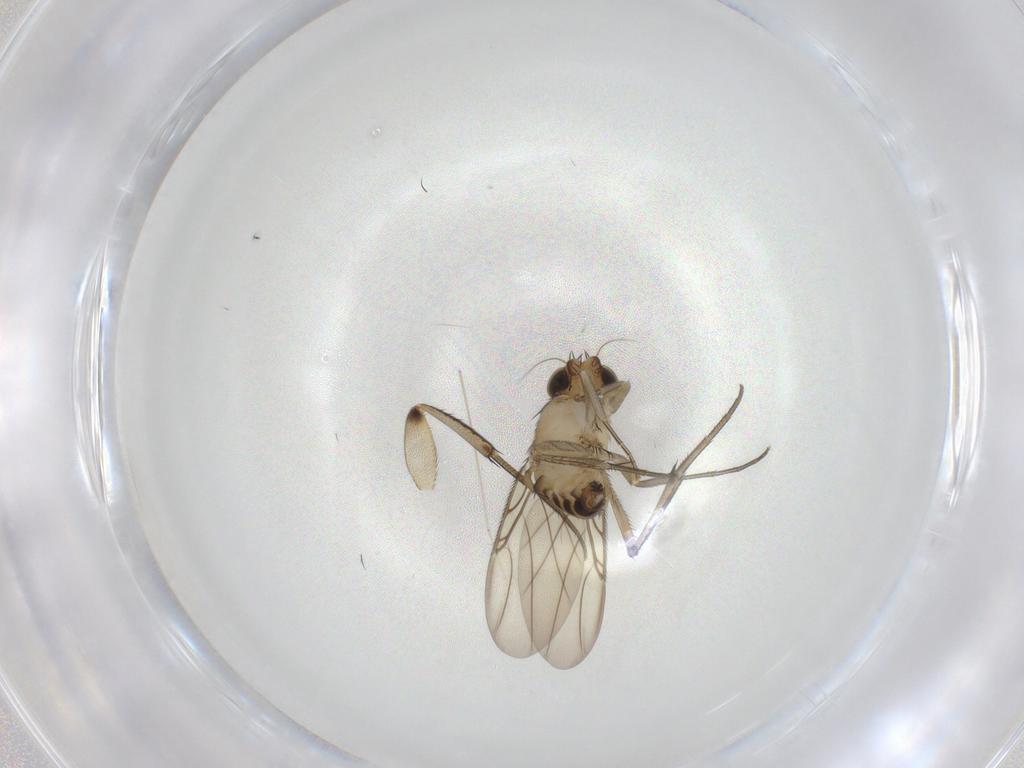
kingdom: Animalia
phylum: Arthropoda
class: Insecta
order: Diptera
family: Phoridae
